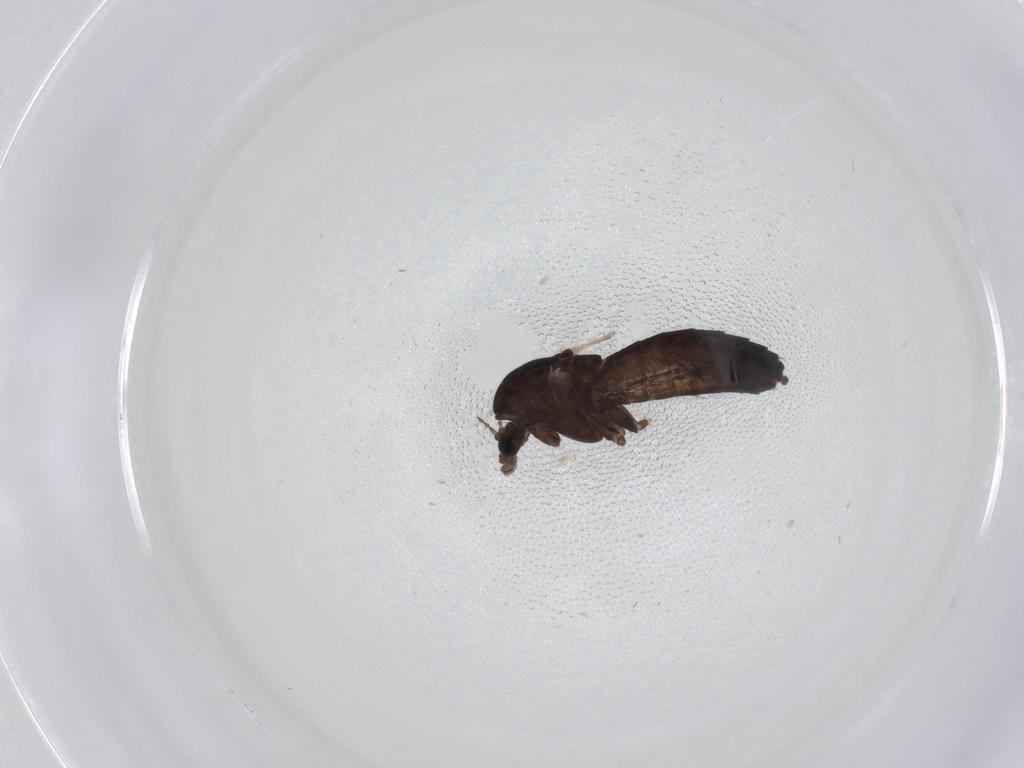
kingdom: Animalia
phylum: Arthropoda
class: Insecta
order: Diptera
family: Chironomidae
